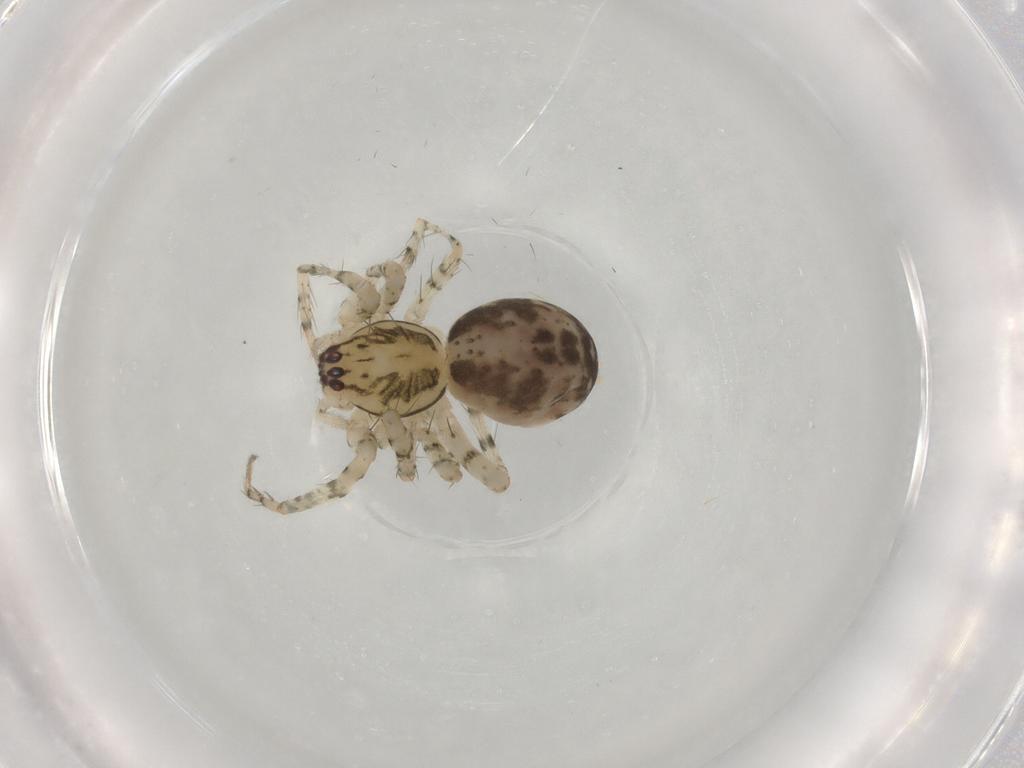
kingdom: Animalia
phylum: Arthropoda
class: Arachnida
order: Araneae
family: Anyphaenidae
